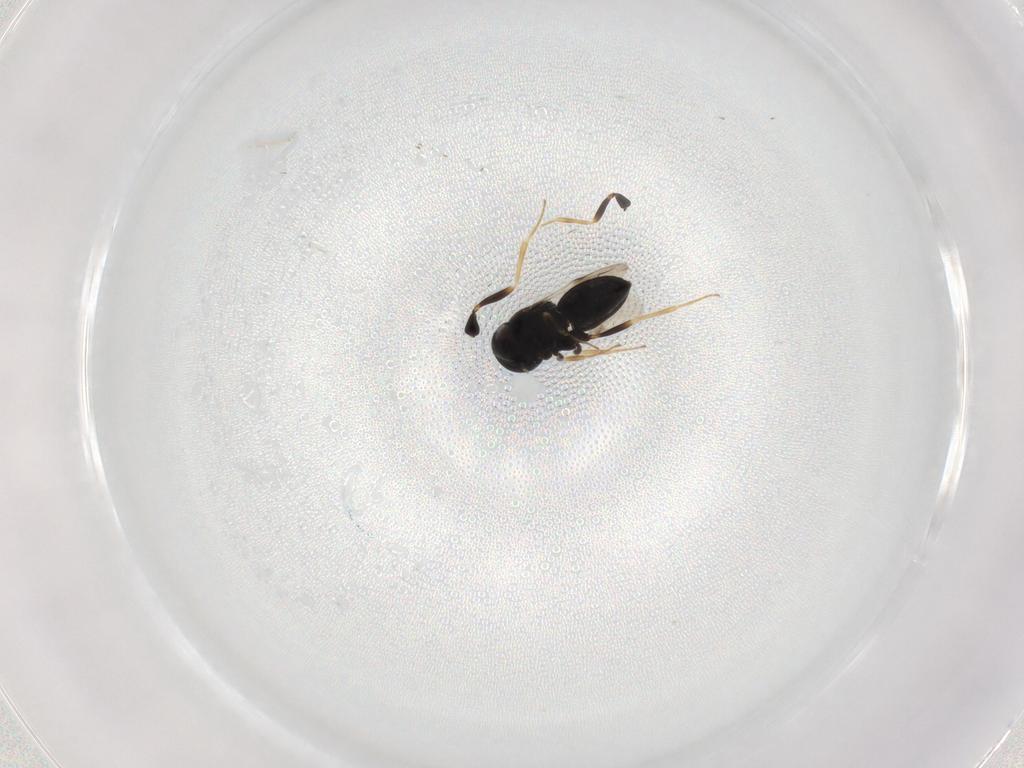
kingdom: Animalia
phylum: Arthropoda
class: Insecta
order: Hymenoptera
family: Scelionidae
